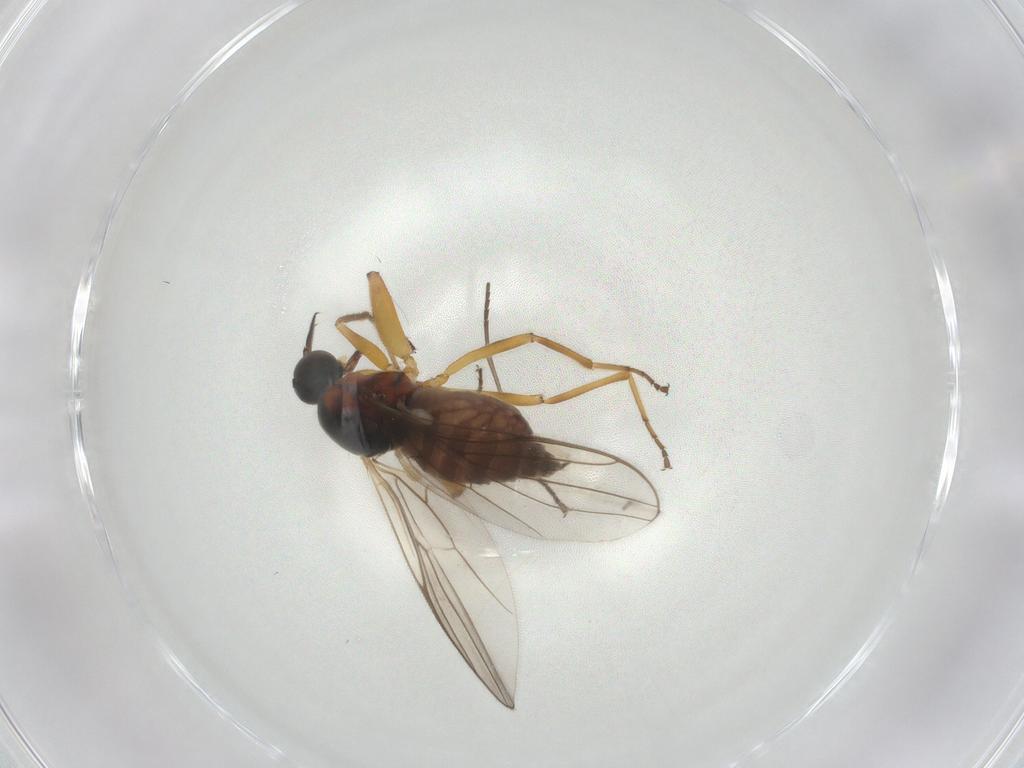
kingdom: Animalia
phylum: Arthropoda
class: Insecta
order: Diptera
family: Hybotidae
